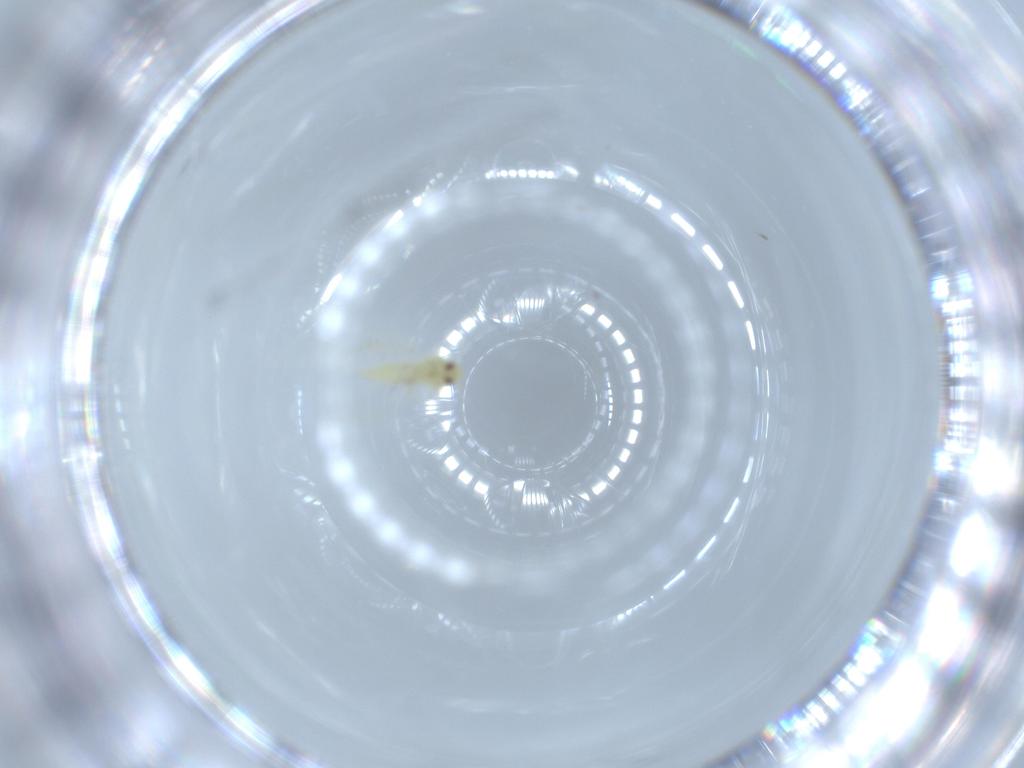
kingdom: Animalia
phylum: Arthropoda
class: Insecta
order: Hemiptera
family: Aleyrodidae
